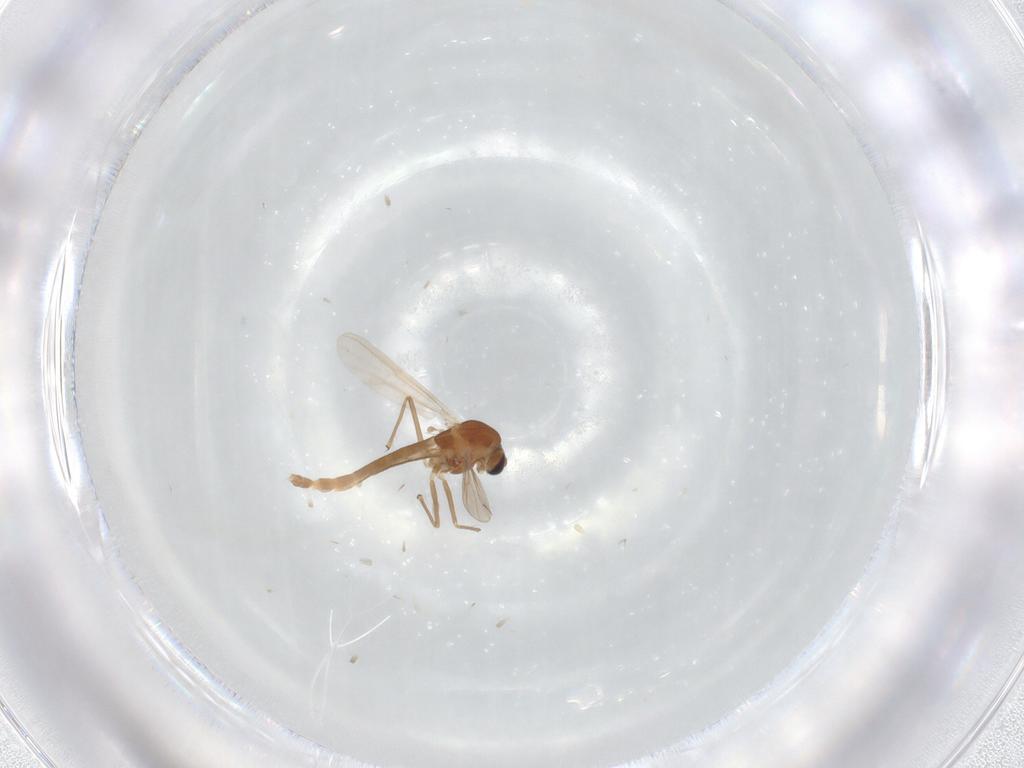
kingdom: Animalia
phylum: Arthropoda
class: Insecta
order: Diptera
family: Chironomidae
